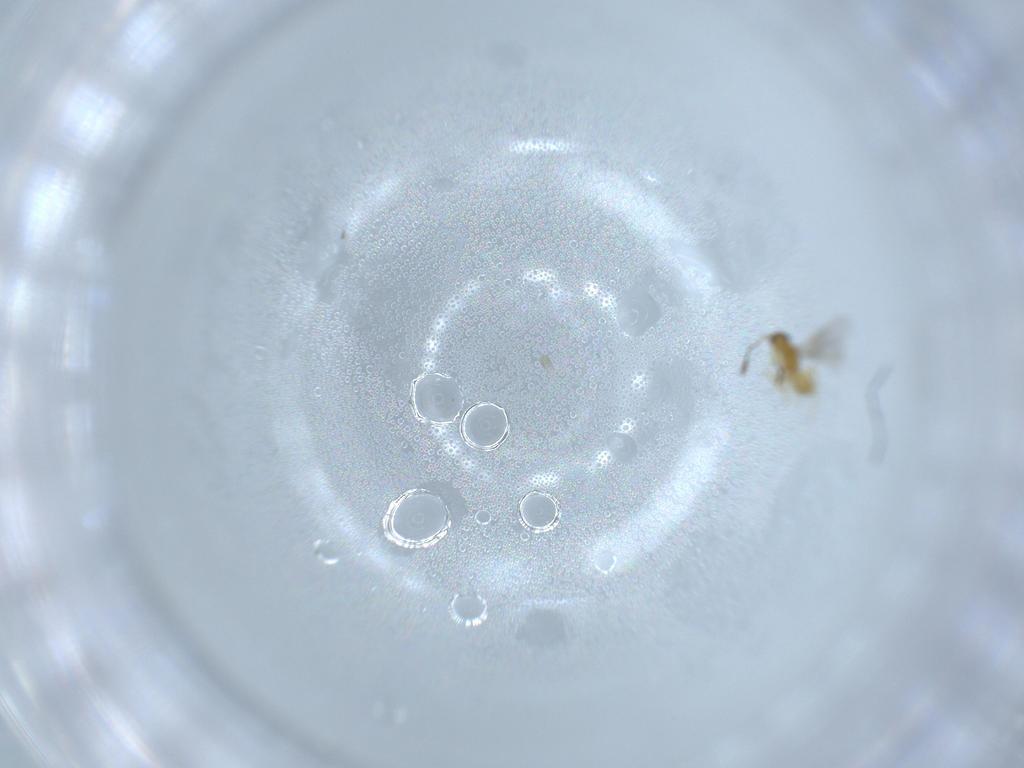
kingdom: Animalia
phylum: Arthropoda
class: Insecta
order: Hymenoptera
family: Mymaridae
